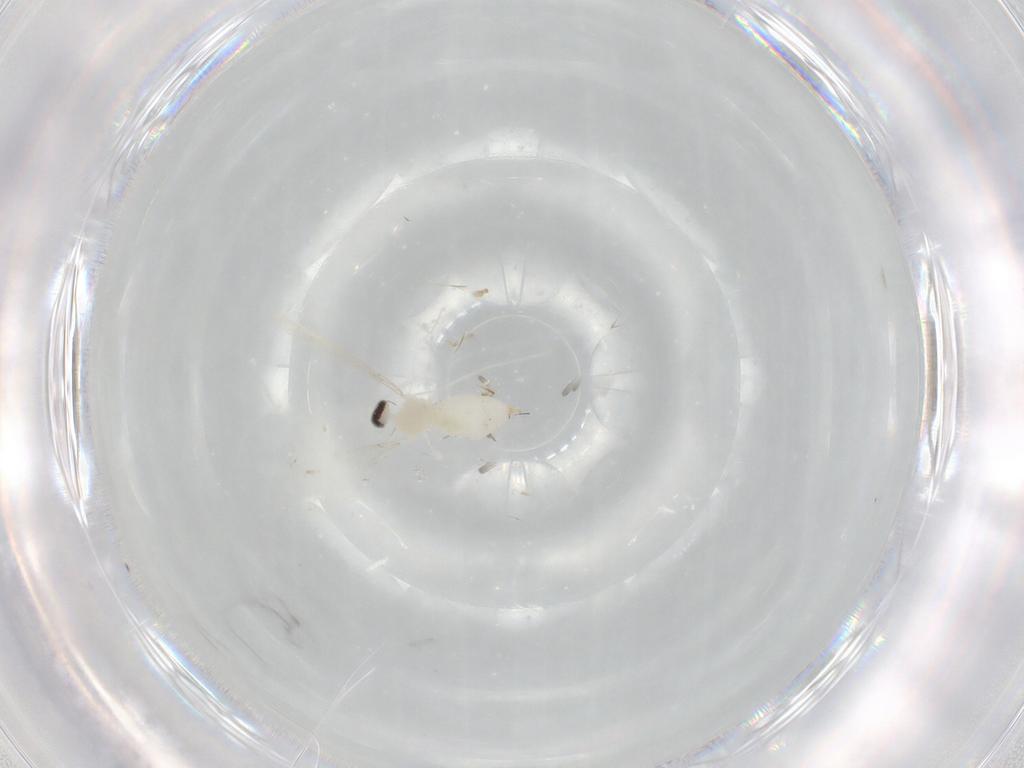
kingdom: Animalia
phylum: Arthropoda
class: Insecta
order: Diptera
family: Cecidomyiidae
